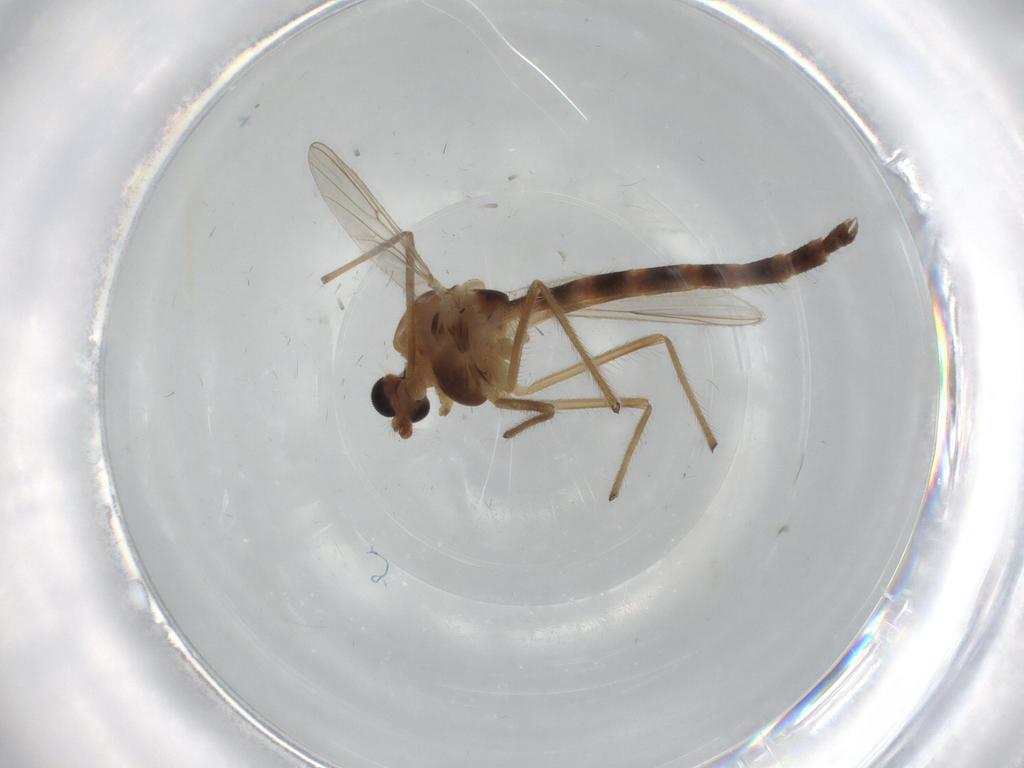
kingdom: Animalia
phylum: Arthropoda
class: Insecta
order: Diptera
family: Chironomidae
